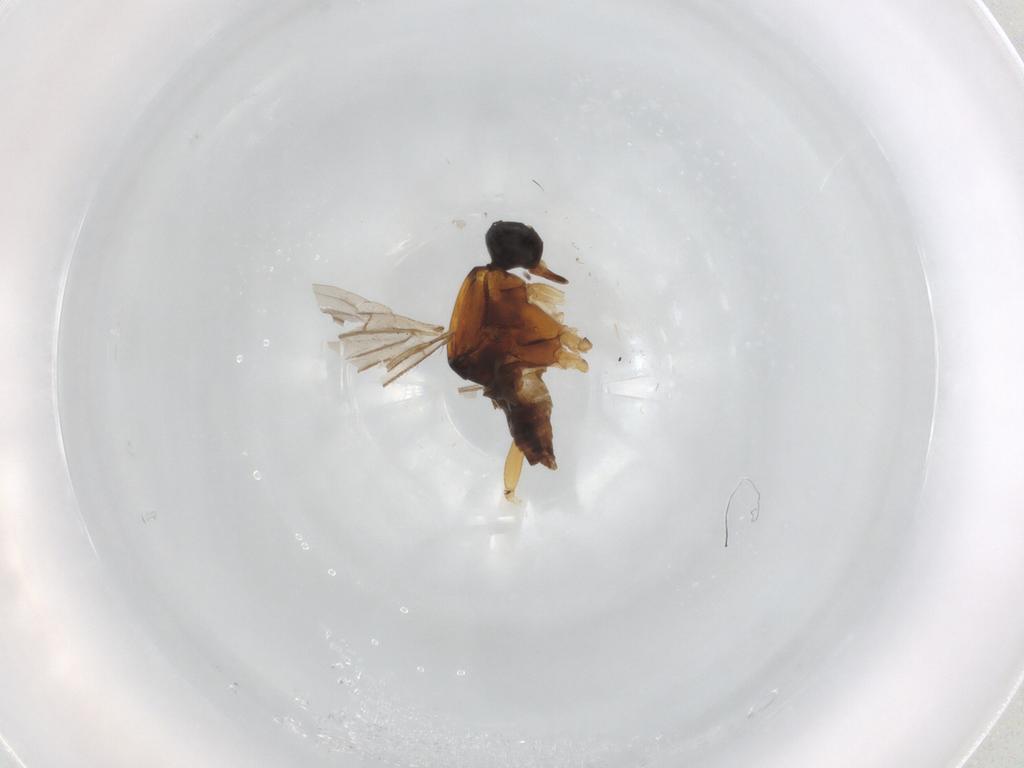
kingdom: Animalia
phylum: Arthropoda
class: Insecta
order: Diptera
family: Hybotidae
